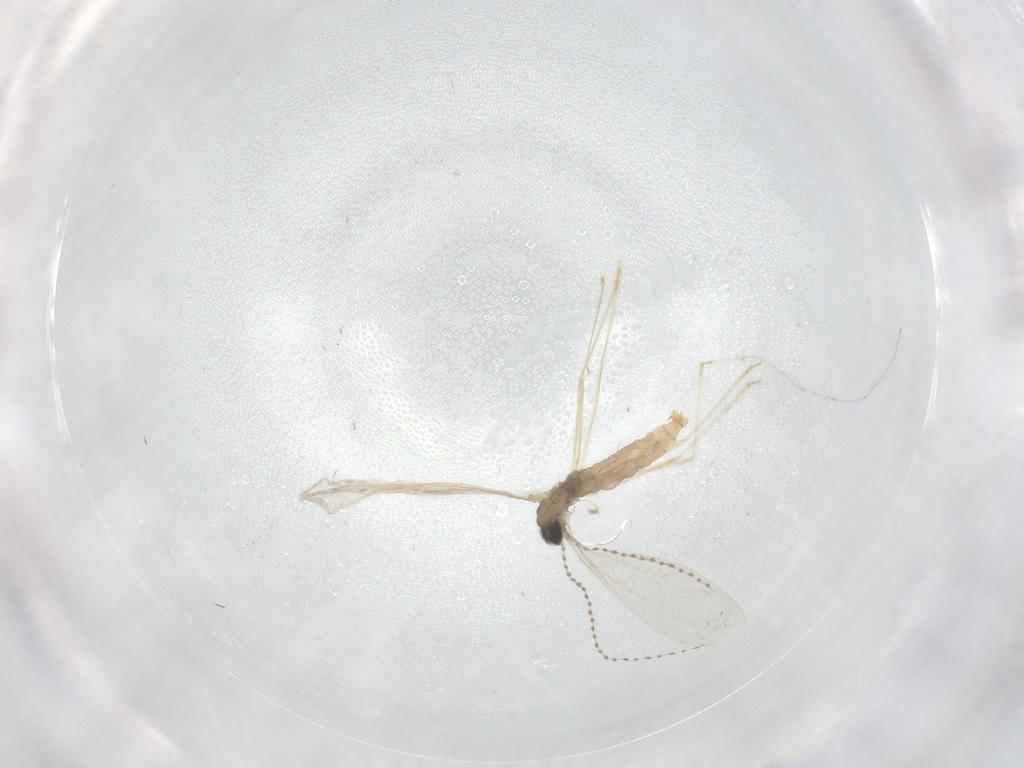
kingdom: Animalia
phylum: Arthropoda
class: Insecta
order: Diptera
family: Cecidomyiidae
